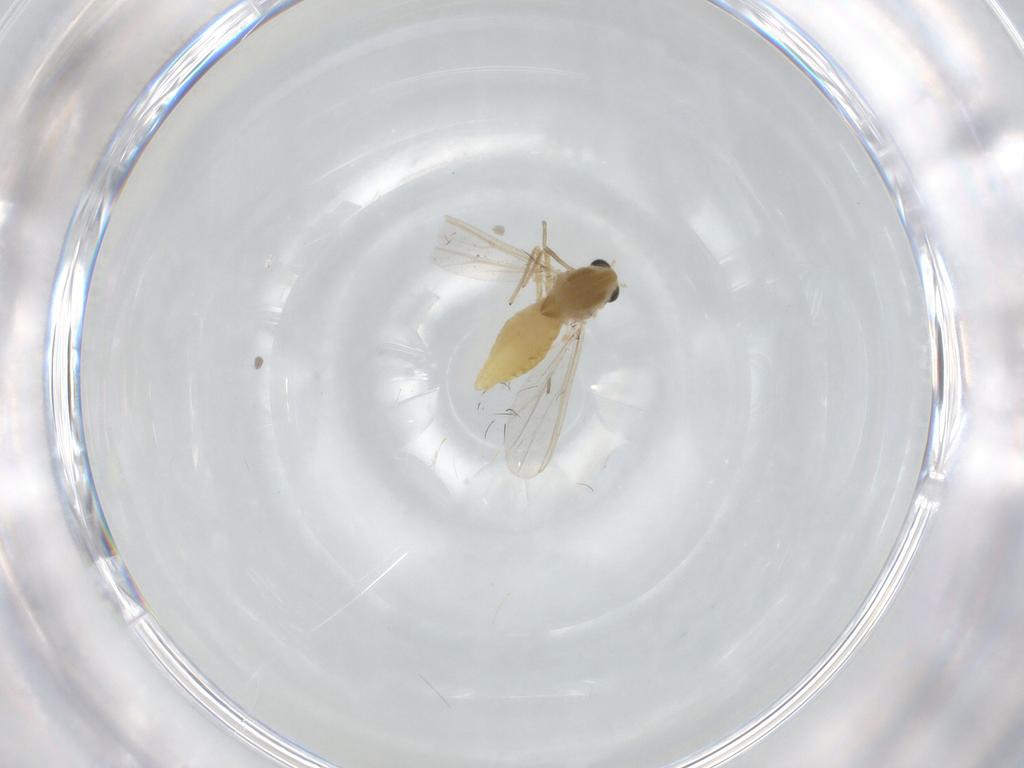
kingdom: Animalia
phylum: Arthropoda
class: Insecta
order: Diptera
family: Chironomidae
